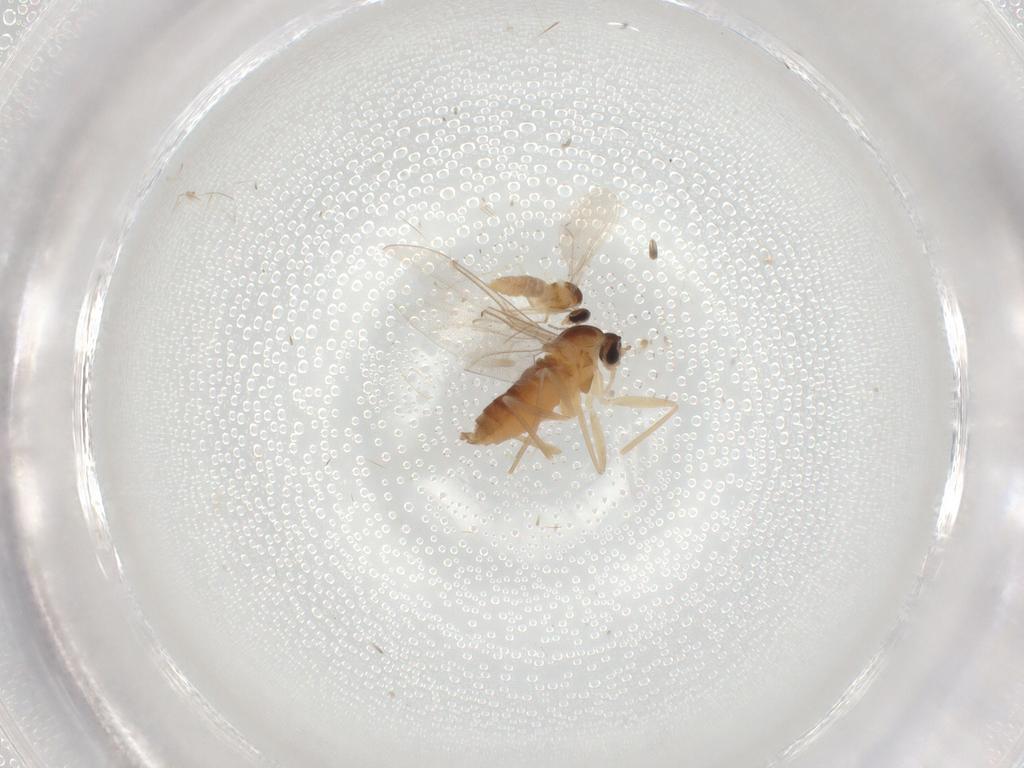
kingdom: Animalia
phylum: Arthropoda
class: Insecta
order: Diptera
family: Cecidomyiidae
